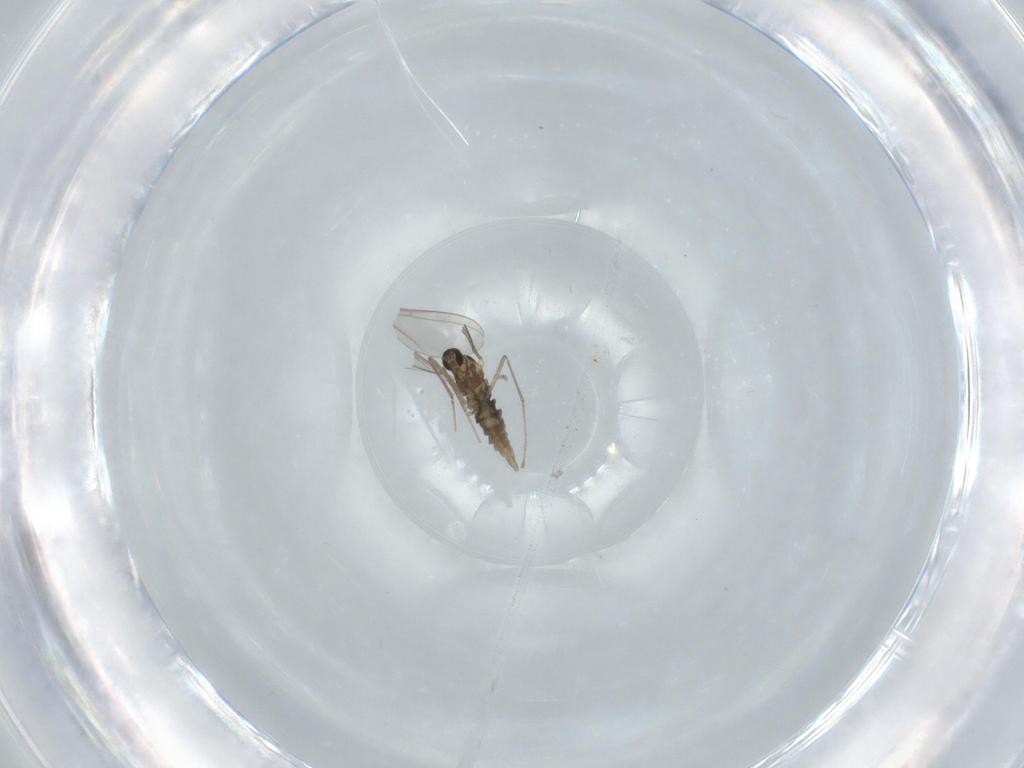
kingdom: Animalia
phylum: Arthropoda
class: Insecta
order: Diptera
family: Cecidomyiidae
